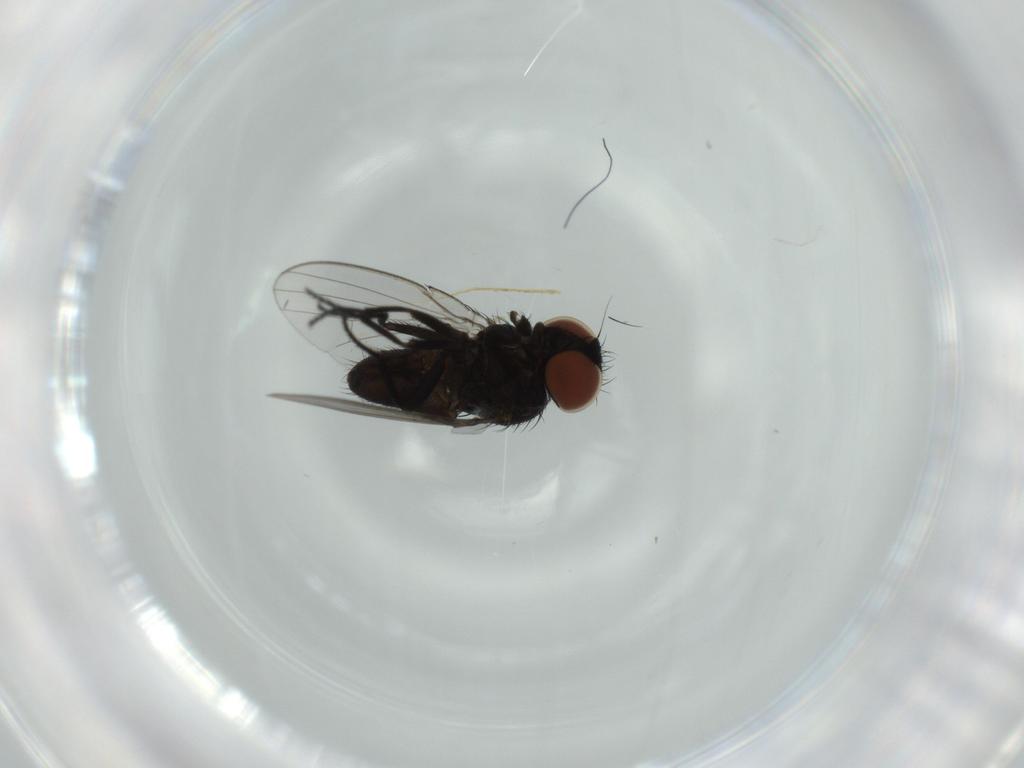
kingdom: Animalia
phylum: Arthropoda
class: Insecta
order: Diptera
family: Milichiidae
